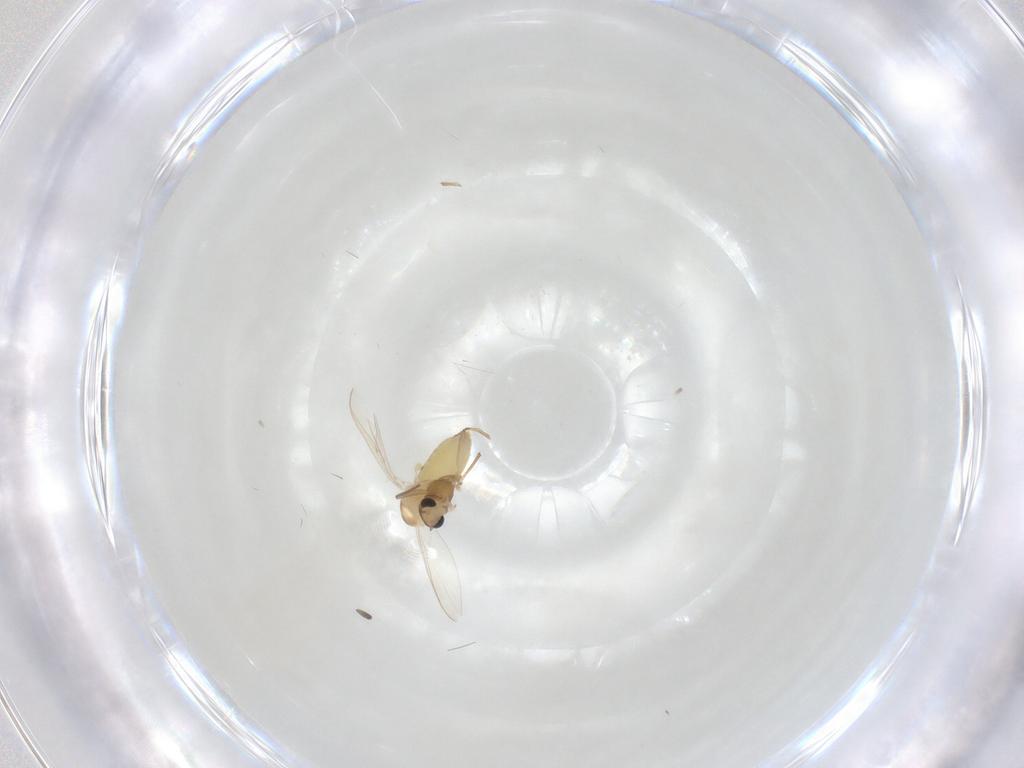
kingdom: Animalia
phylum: Arthropoda
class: Insecta
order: Diptera
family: Chironomidae
